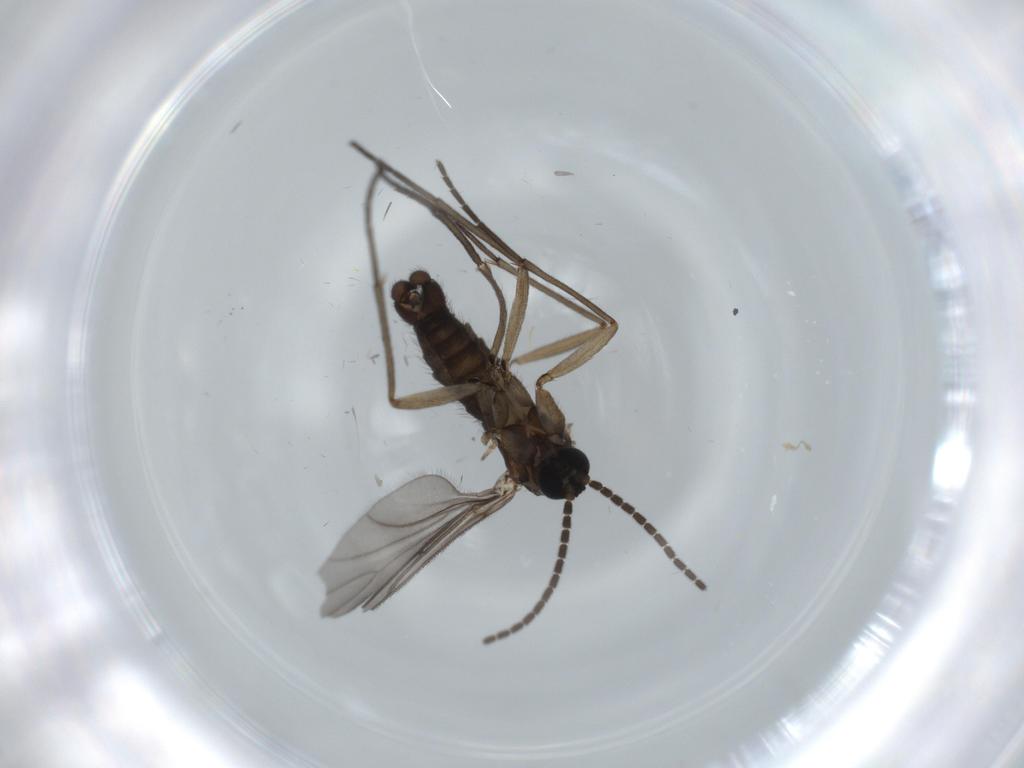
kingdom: Animalia
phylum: Arthropoda
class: Insecta
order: Diptera
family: Sciaridae
